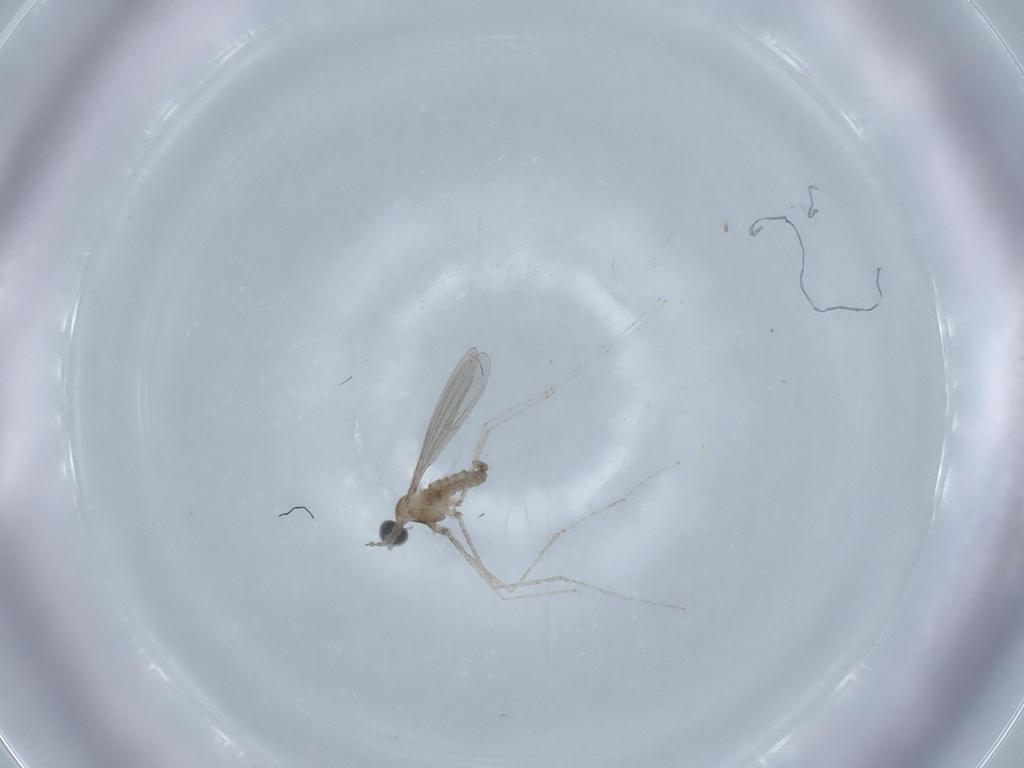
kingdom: Animalia
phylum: Arthropoda
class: Insecta
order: Diptera
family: Cecidomyiidae
